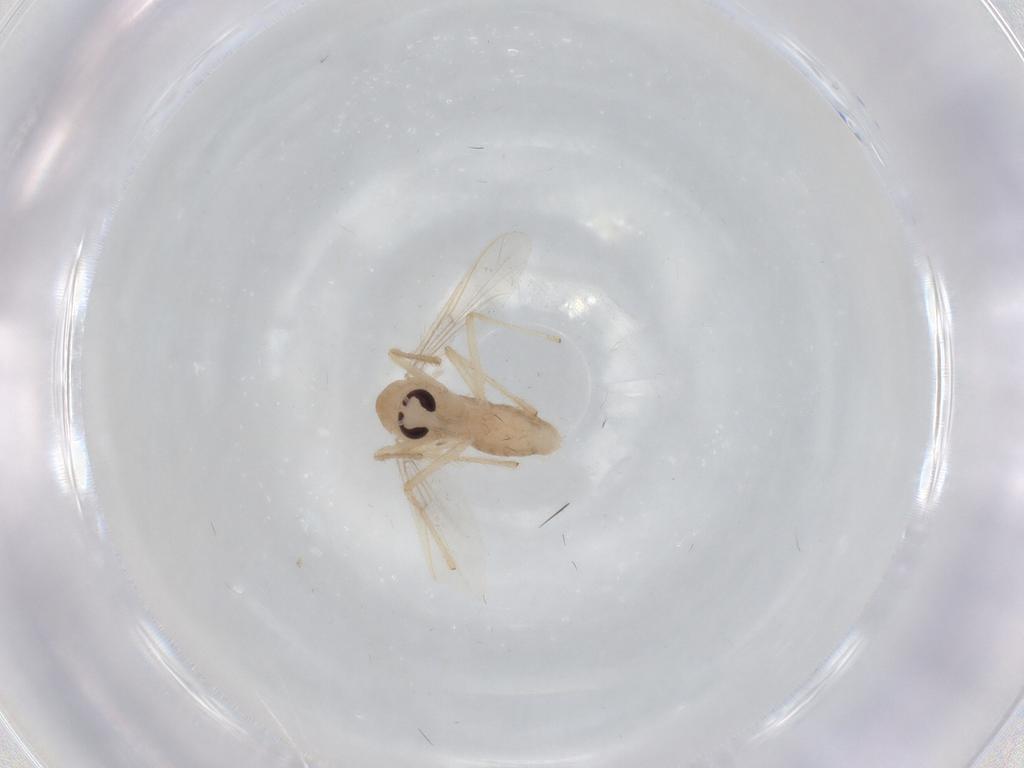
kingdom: Animalia
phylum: Arthropoda
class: Insecta
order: Diptera
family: Chironomidae
